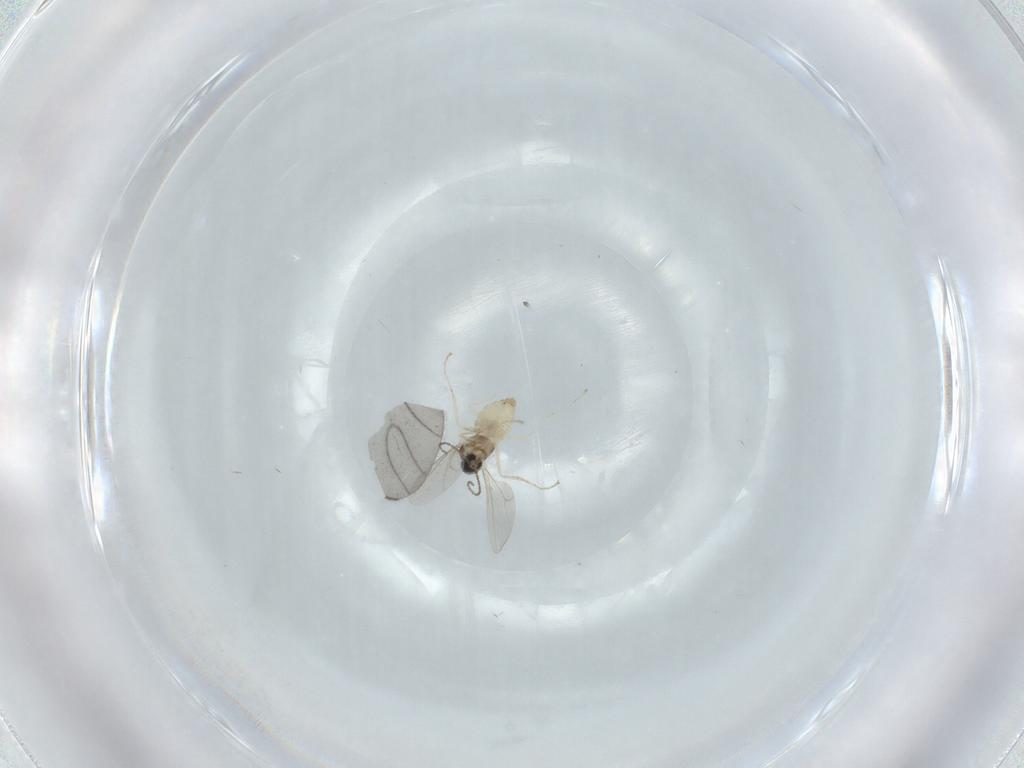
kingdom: Animalia
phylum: Arthropoda
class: Insecta
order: Diptera
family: Cecidomyiidae
